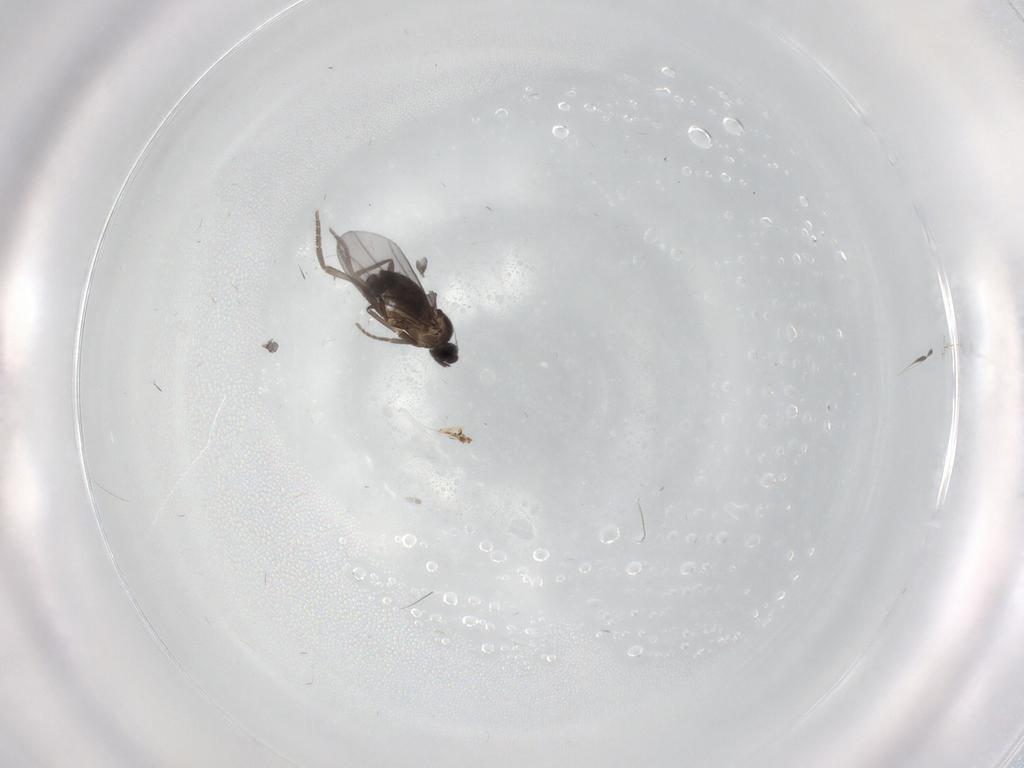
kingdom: Animalia
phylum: Arthropoda
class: Insecta
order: Diptera
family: Phoridae
